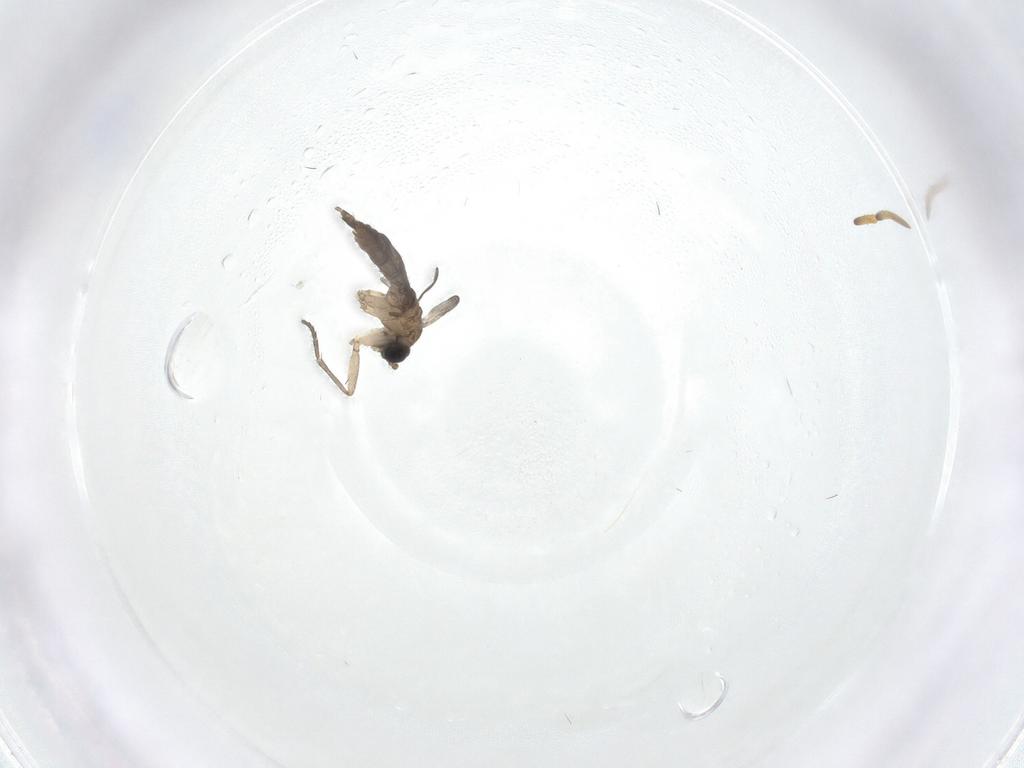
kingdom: Animalia
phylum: Arthropoda
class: Insecta
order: Diptera
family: Sciaridae
